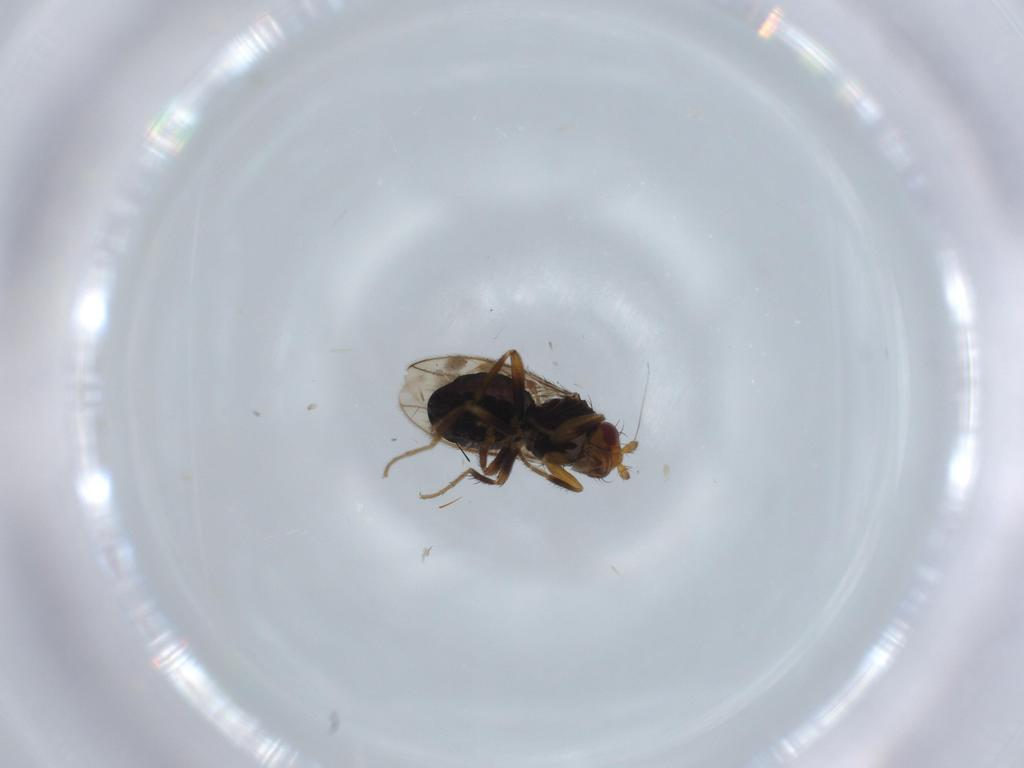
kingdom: Animalia
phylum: Arthropoda
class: Insecta
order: Diptera
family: Sphaeroceridae
